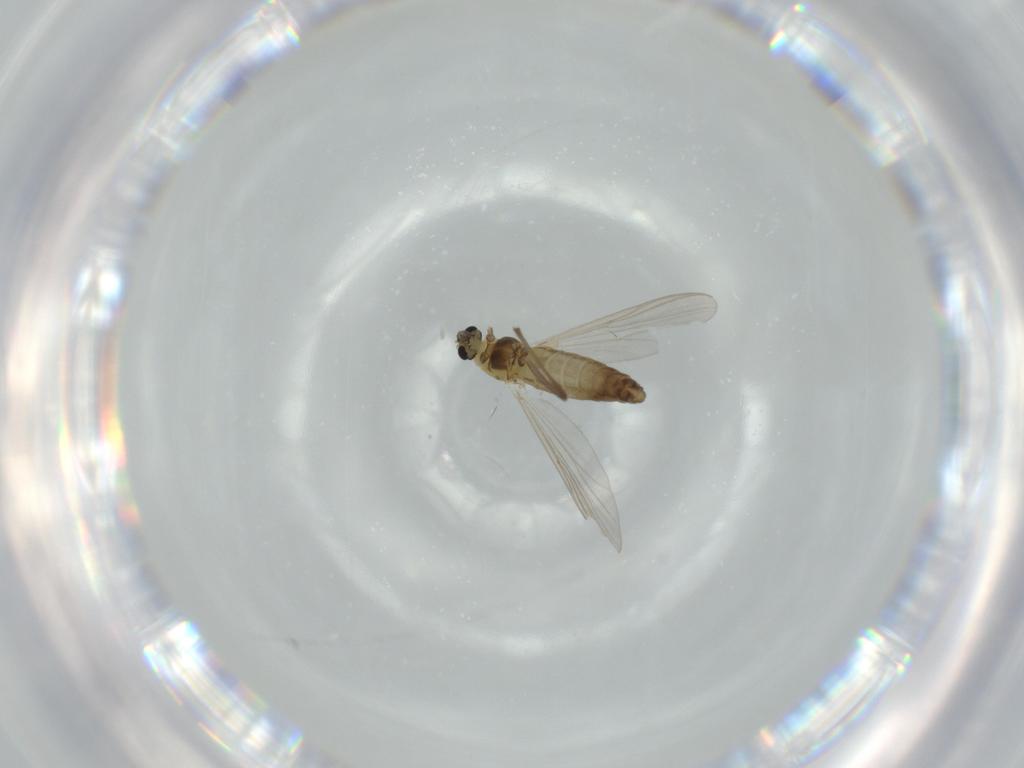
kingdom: Animalia
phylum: Arthropoda
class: Insecta
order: Diptera
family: Chironomidae
